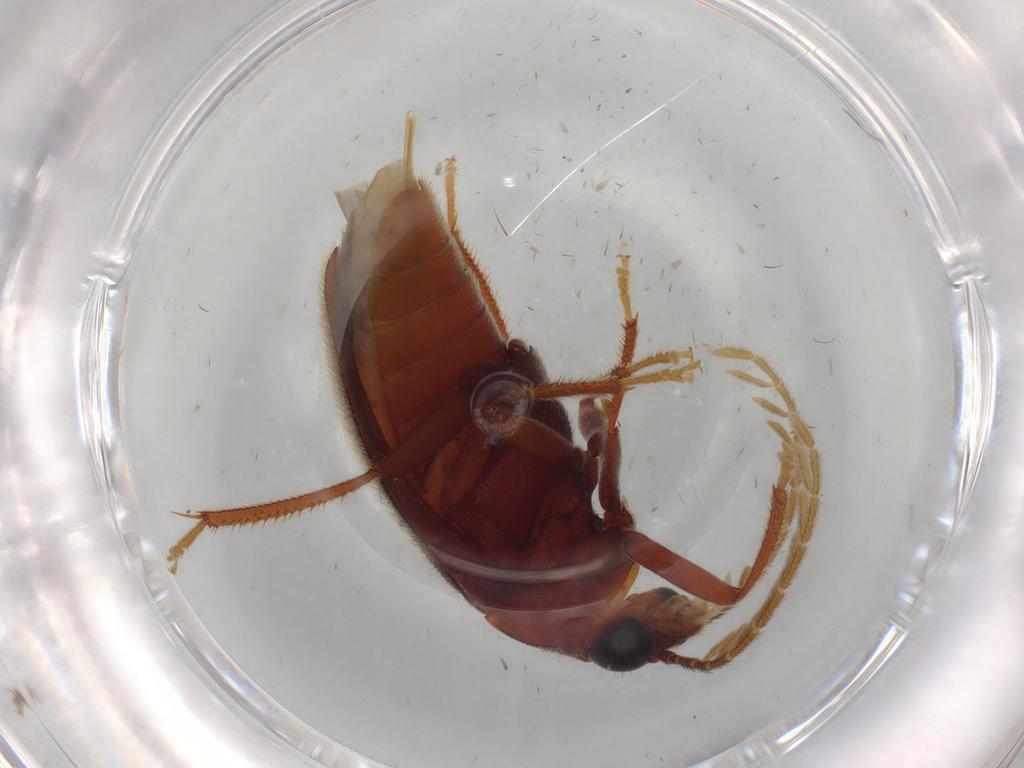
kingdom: Animalia
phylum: Arthropoda
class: Insecta
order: Coleoptera
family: Ptilodactylidae
